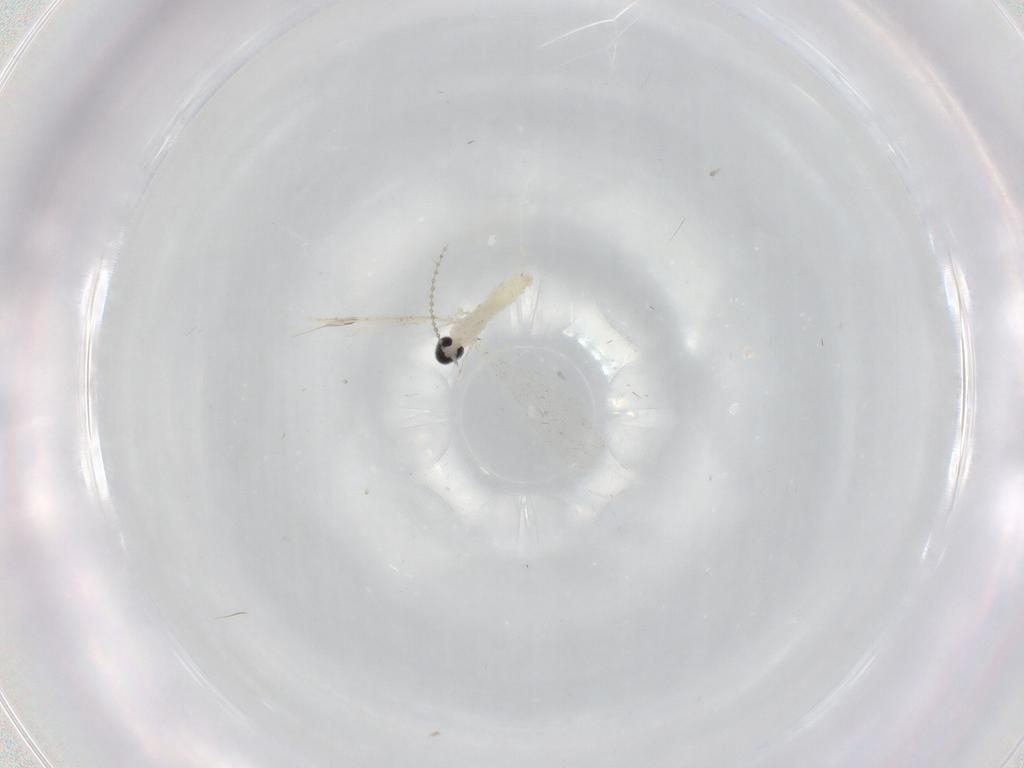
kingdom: Animalia
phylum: Arthropoda
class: Insecta
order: Diptera
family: Cecidomyiidae
